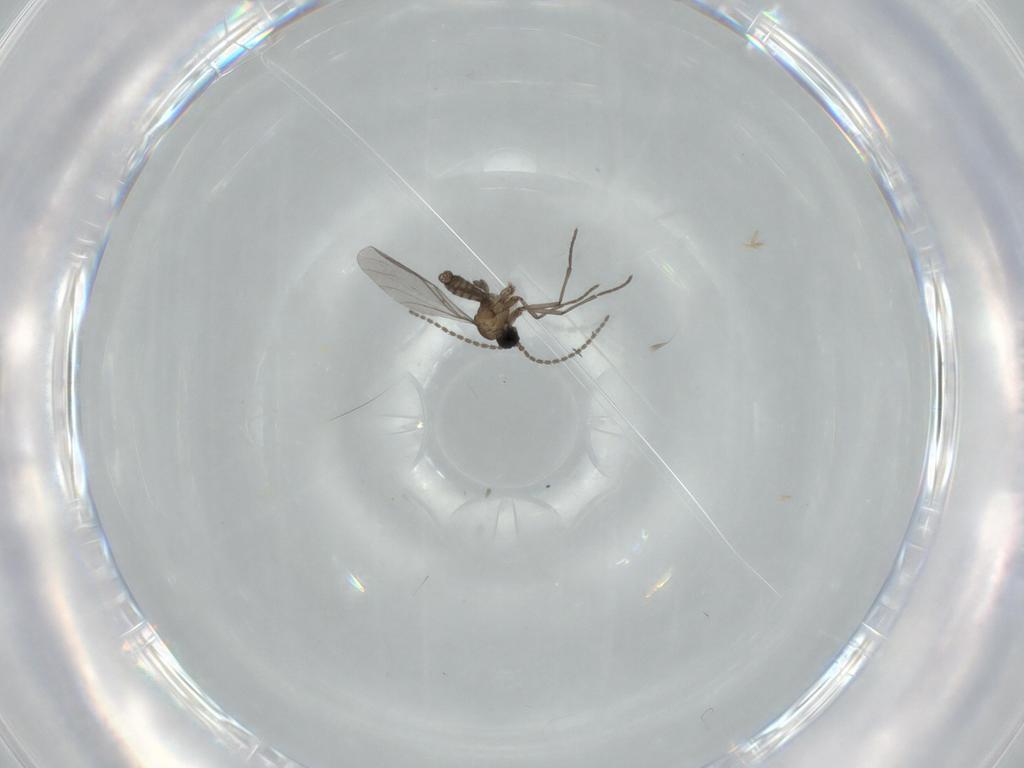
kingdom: Animalia
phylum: Arthropoda
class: Insecta
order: Diptera
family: Sciaridae
